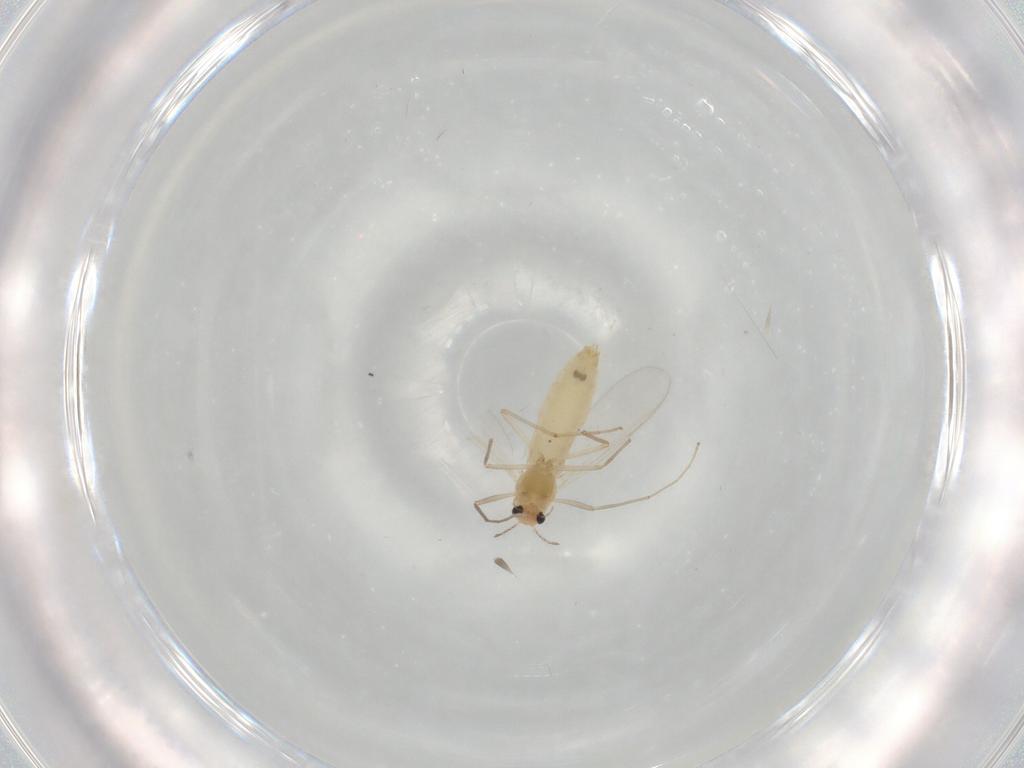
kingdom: Animalia
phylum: Arthropoda
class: Insecta
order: Diptera
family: Chironomidae
